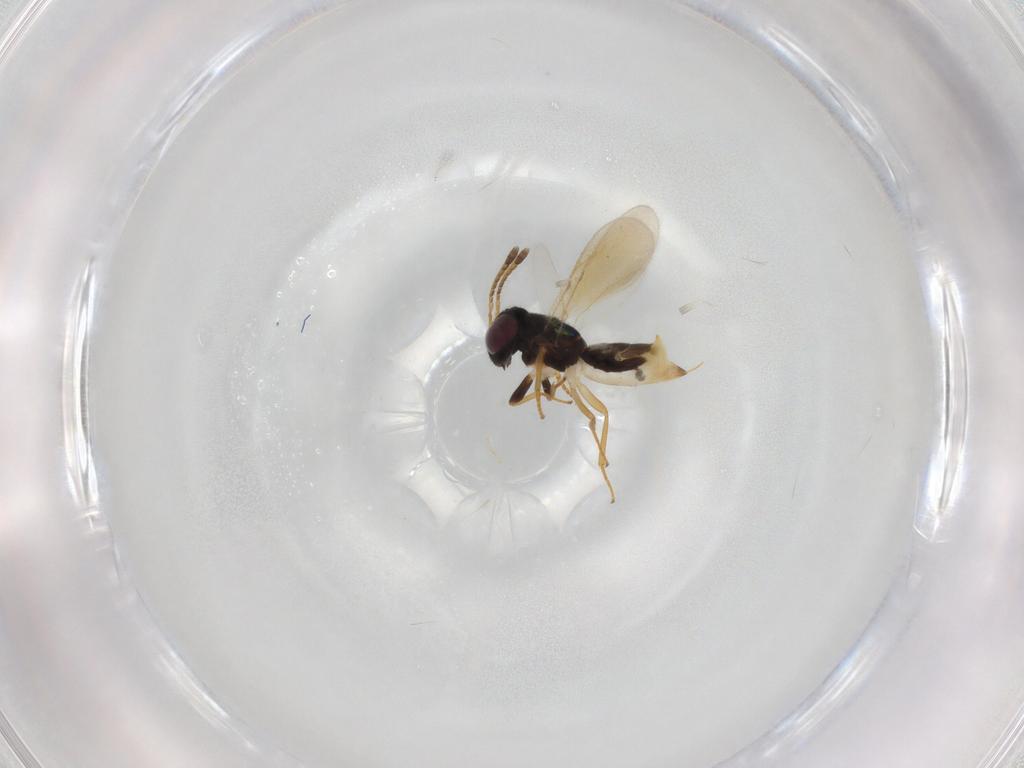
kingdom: Animalia
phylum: Arthropoda
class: Insecta
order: Hymenoptera
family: Encyrtidae
